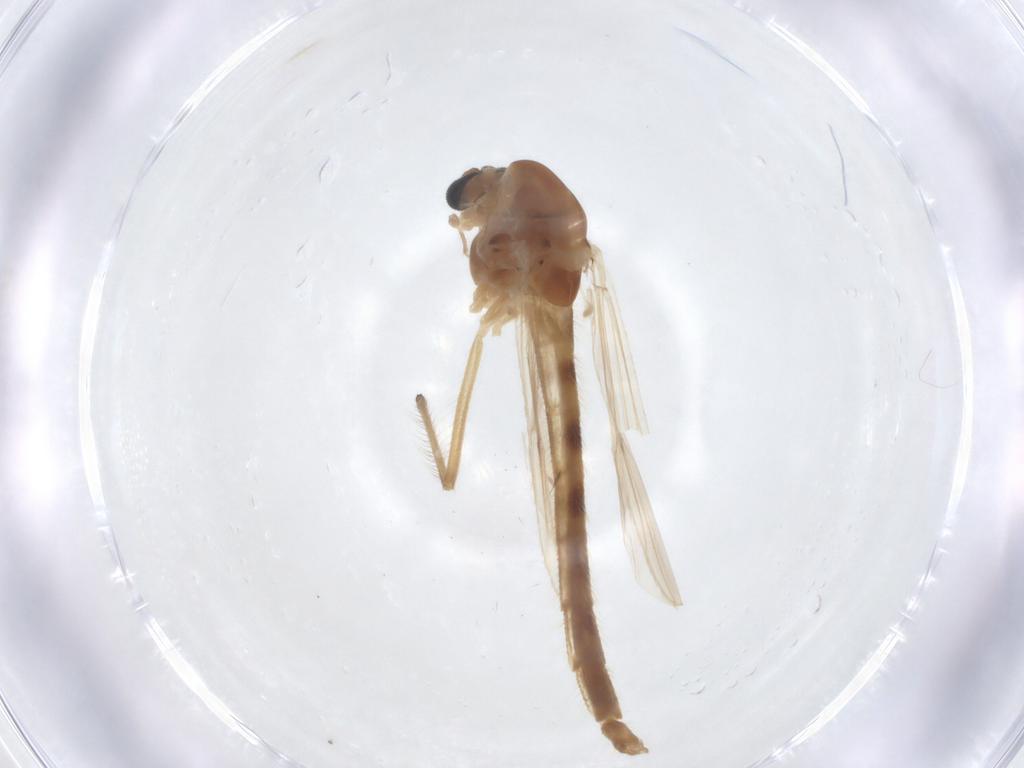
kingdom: Animalia
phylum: Arthropoda
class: Insecta
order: Diptera
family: Chironomidae
